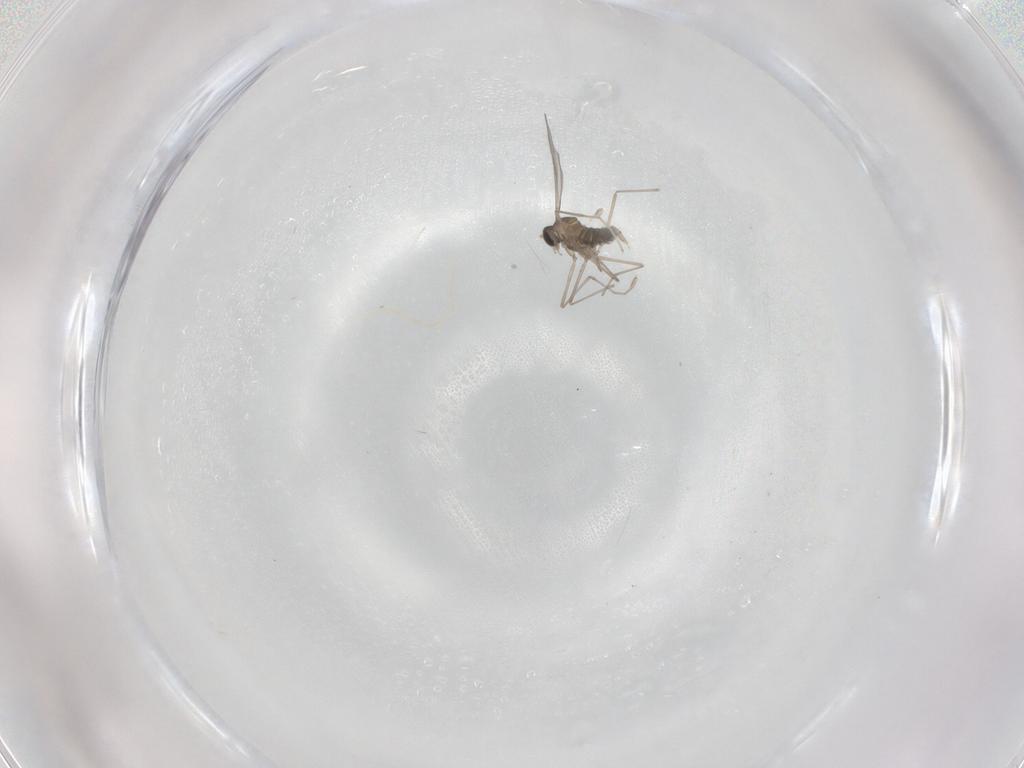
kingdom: Animalia
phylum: Arthropoda
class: Insecta
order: Diptera
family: Cecidomyiidae
